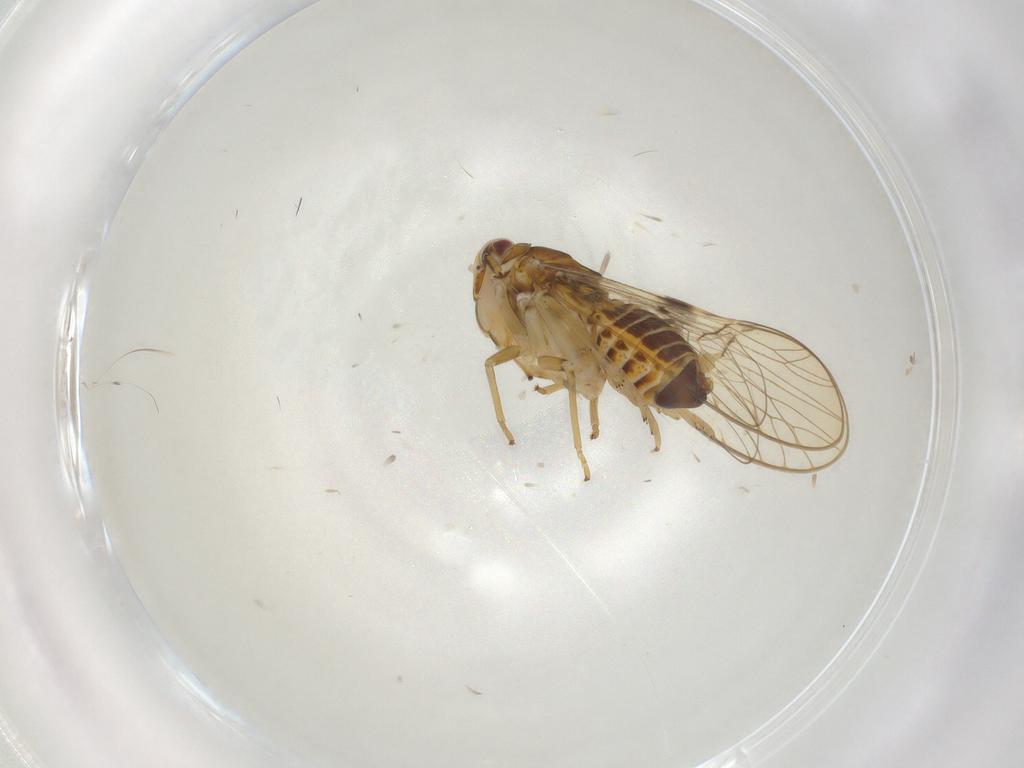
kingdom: Animalia
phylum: Arthropoda
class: Insecta
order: Hemiptera
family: Delphacidae
